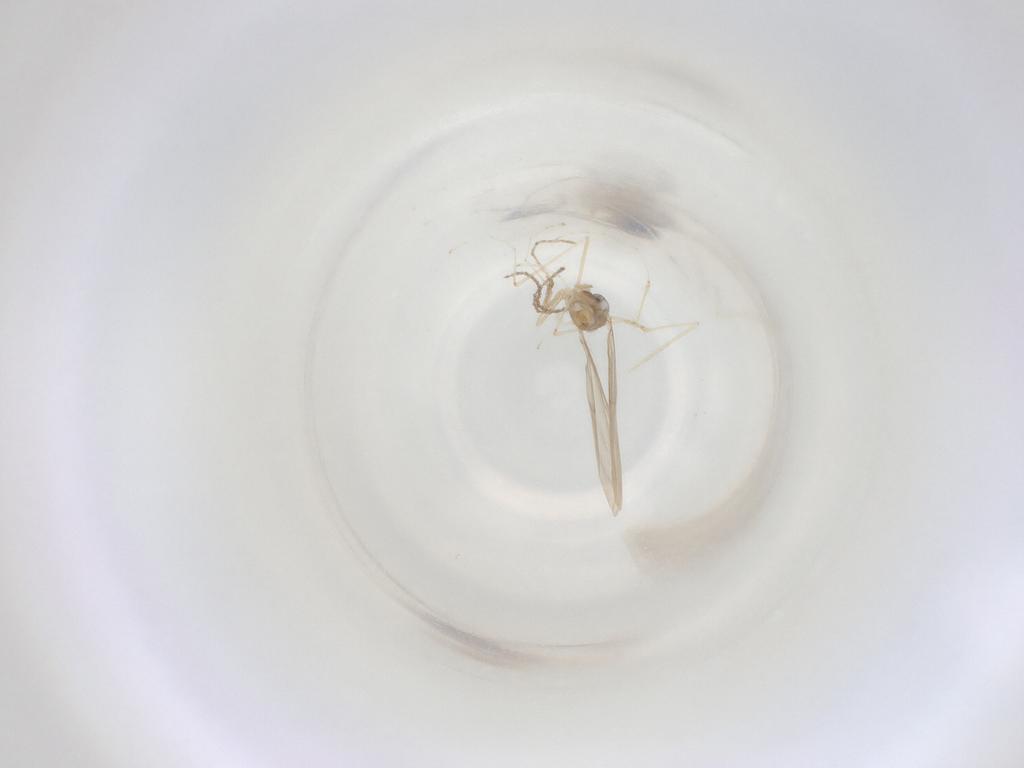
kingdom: Animalia
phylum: Arthropoda
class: Insecta
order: Diptera
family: Cecidomyiidae
